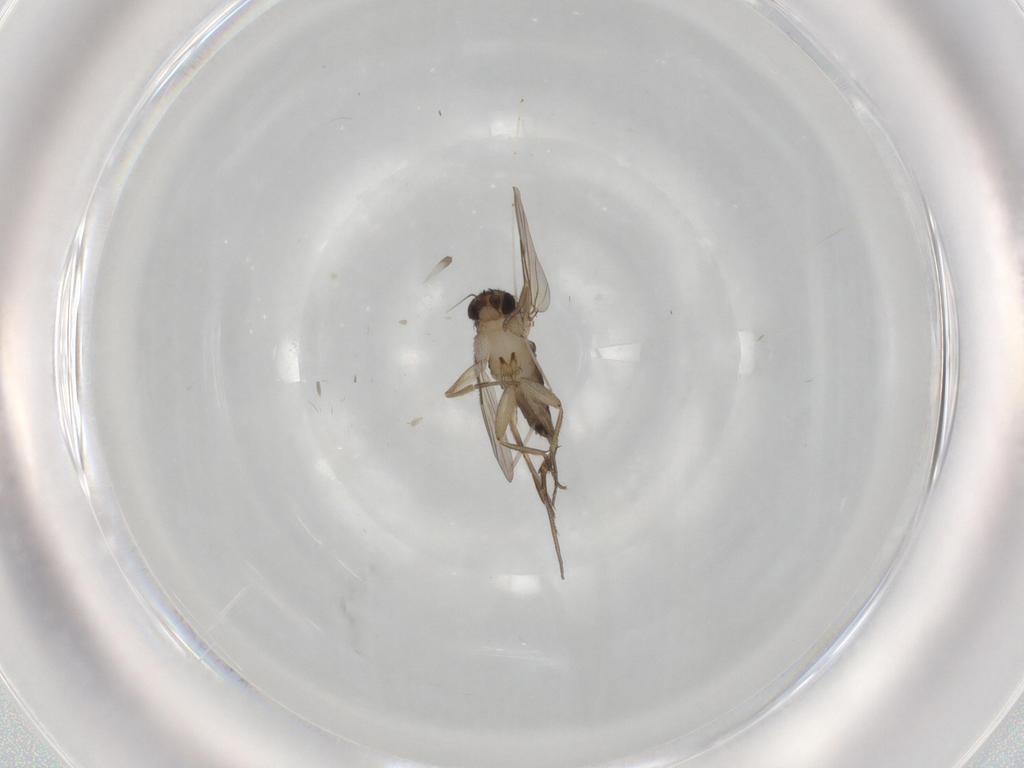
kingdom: Animalia
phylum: Arthropoda
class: Insecta
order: Diptera
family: Phoridae
